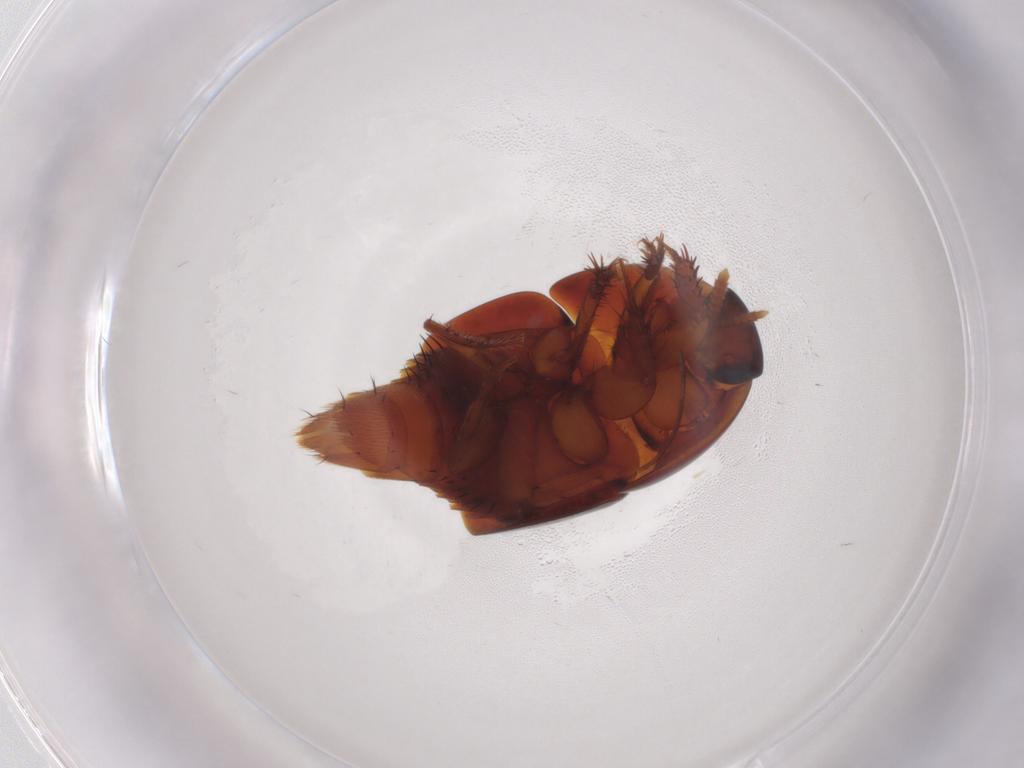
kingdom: Animalia
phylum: Arthropoda
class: Insecta
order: Coleoptera
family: Staphylinidae
